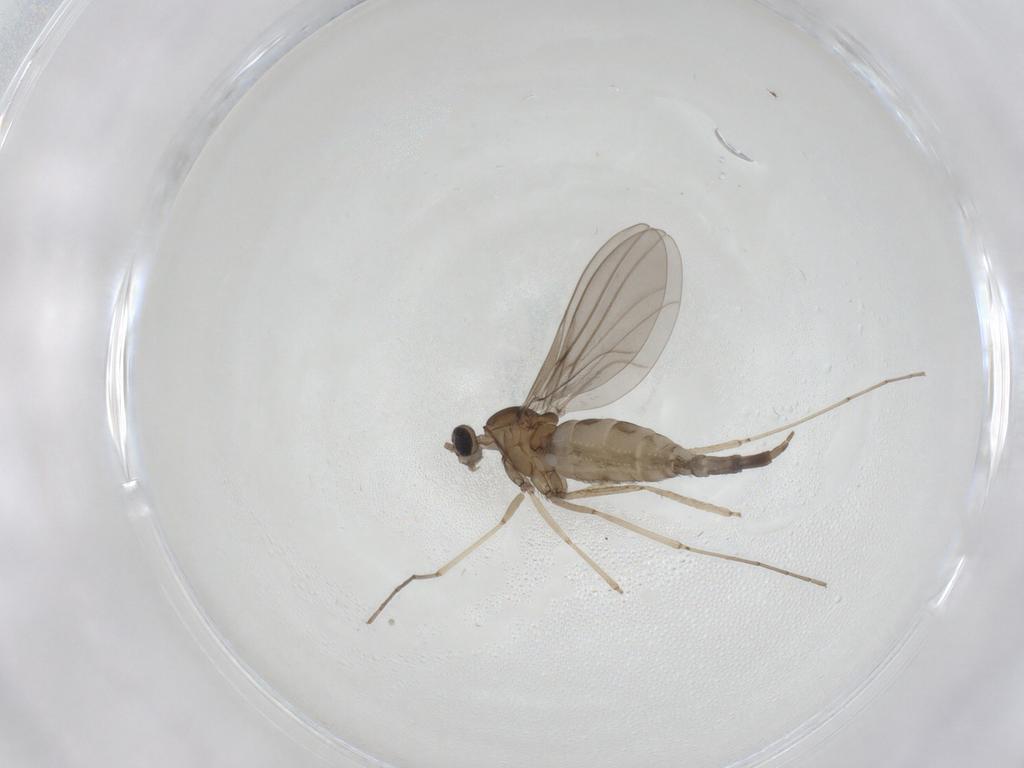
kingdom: Animalia
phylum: Arthropoda
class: Insecta
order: Diptera
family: Cecidomyiidae
